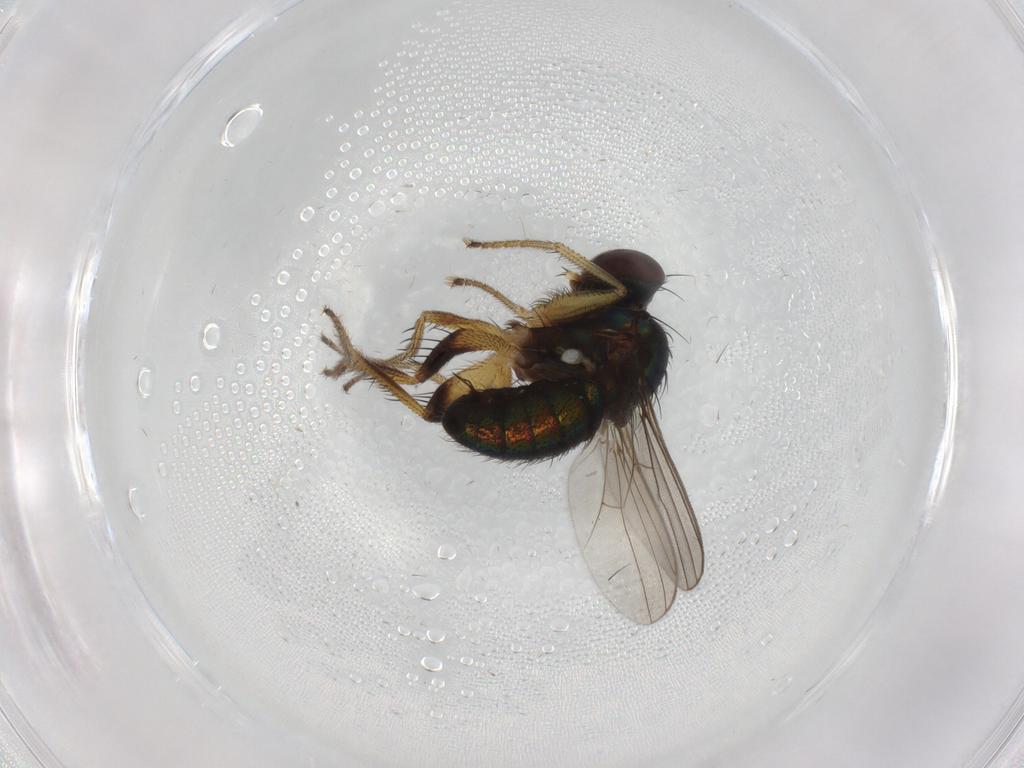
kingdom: Animalia
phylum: Arthropoda
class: Insecta
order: Diptera
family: Dolichopodidae
